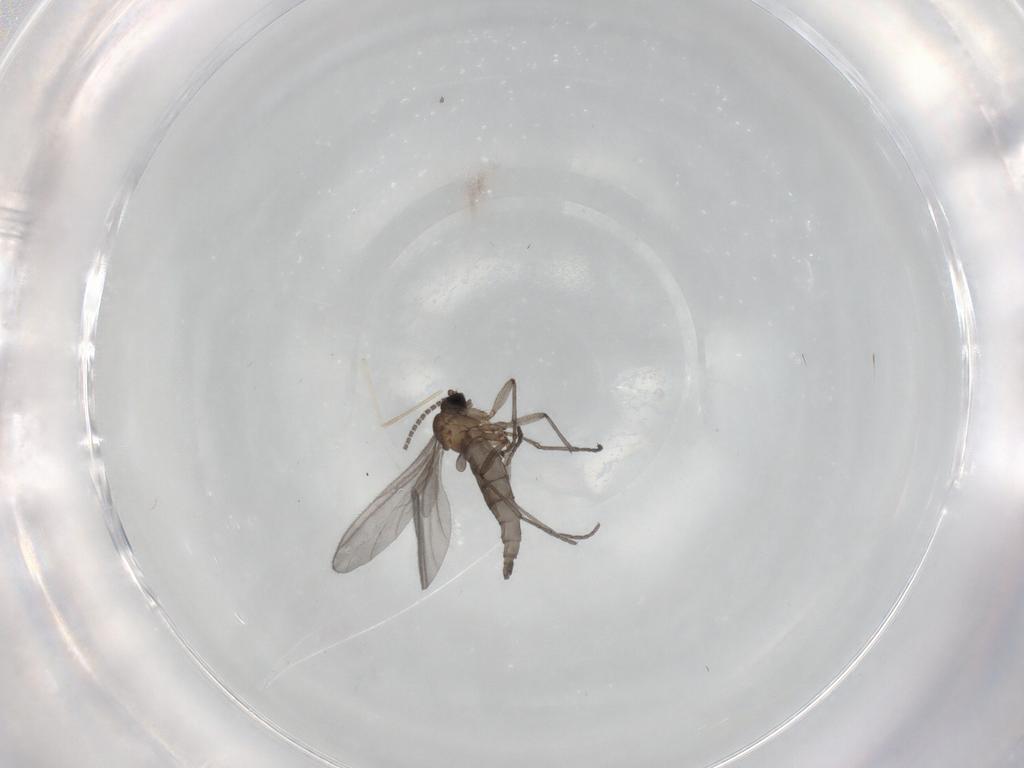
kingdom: Animalia
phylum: Arthropoda
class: Insecta
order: Diptera
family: Sciaridae
